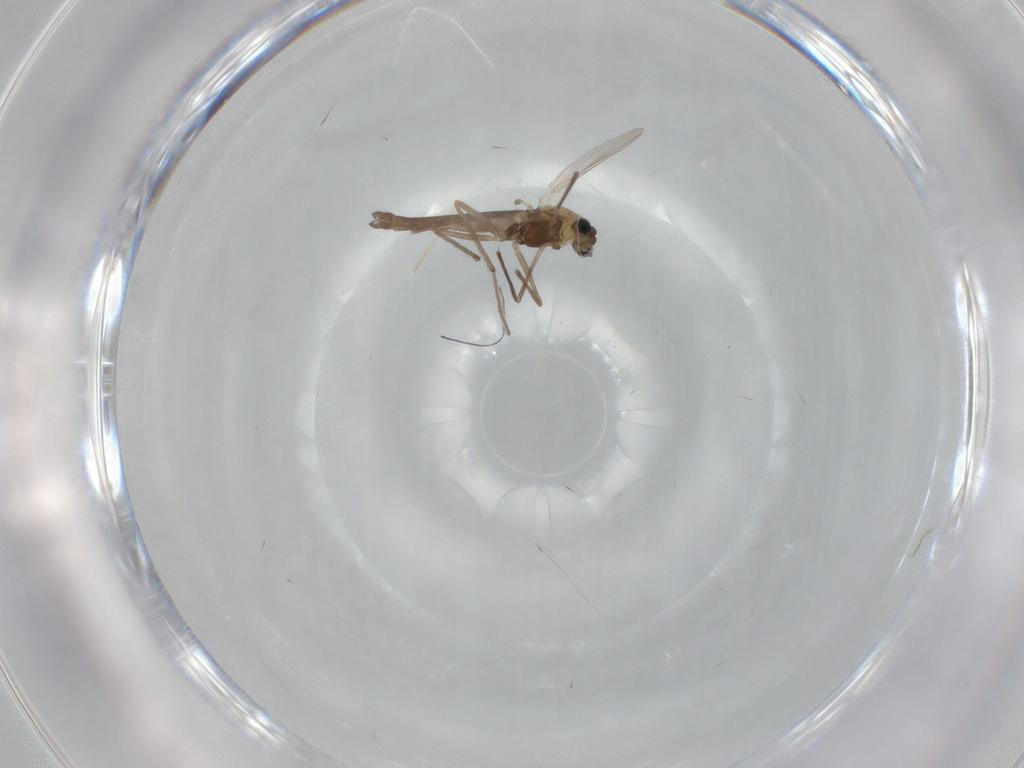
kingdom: Animalia
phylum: Arthropoda
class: Insecta
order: Diptera
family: Chironomidae
